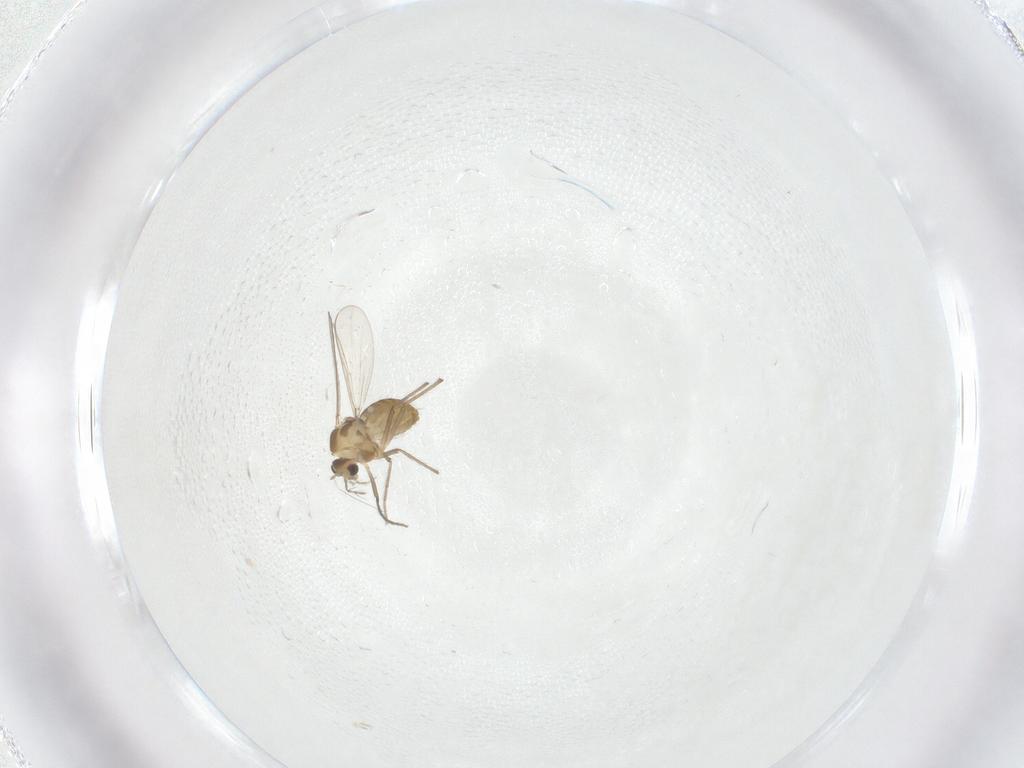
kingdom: Animalia
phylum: Arthropoda
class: Insecta
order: Diptera
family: Chironomidae
